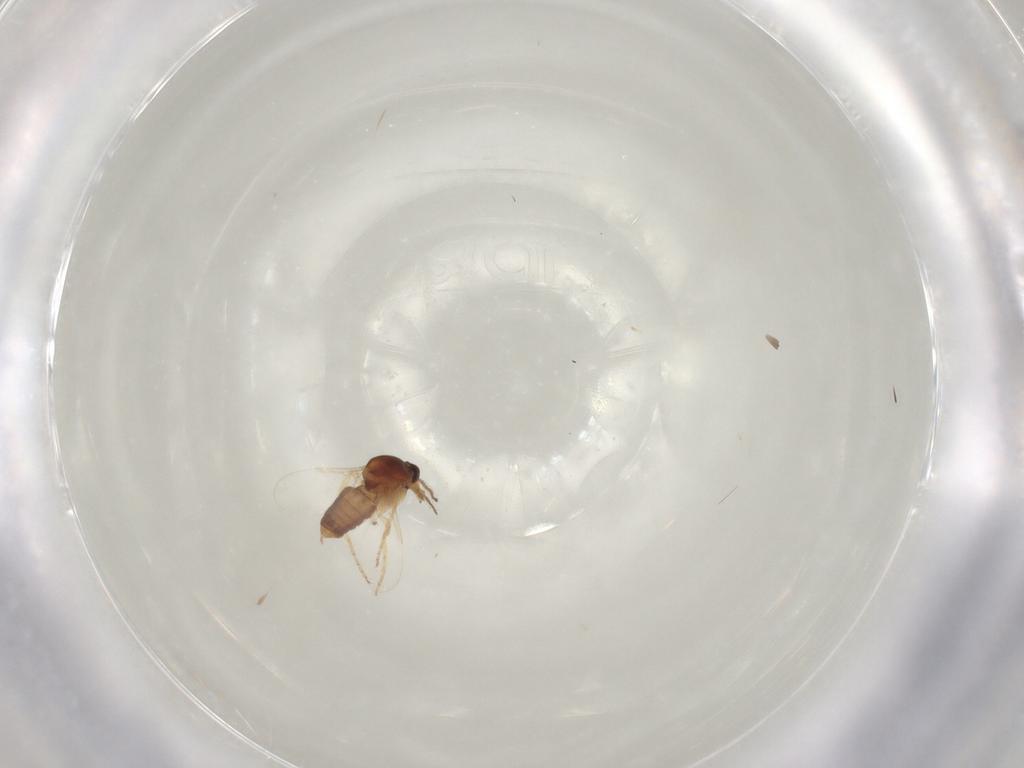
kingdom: Animalia
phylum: Arthropoda
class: Insecta
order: Diptera
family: Ceratopogonidae
